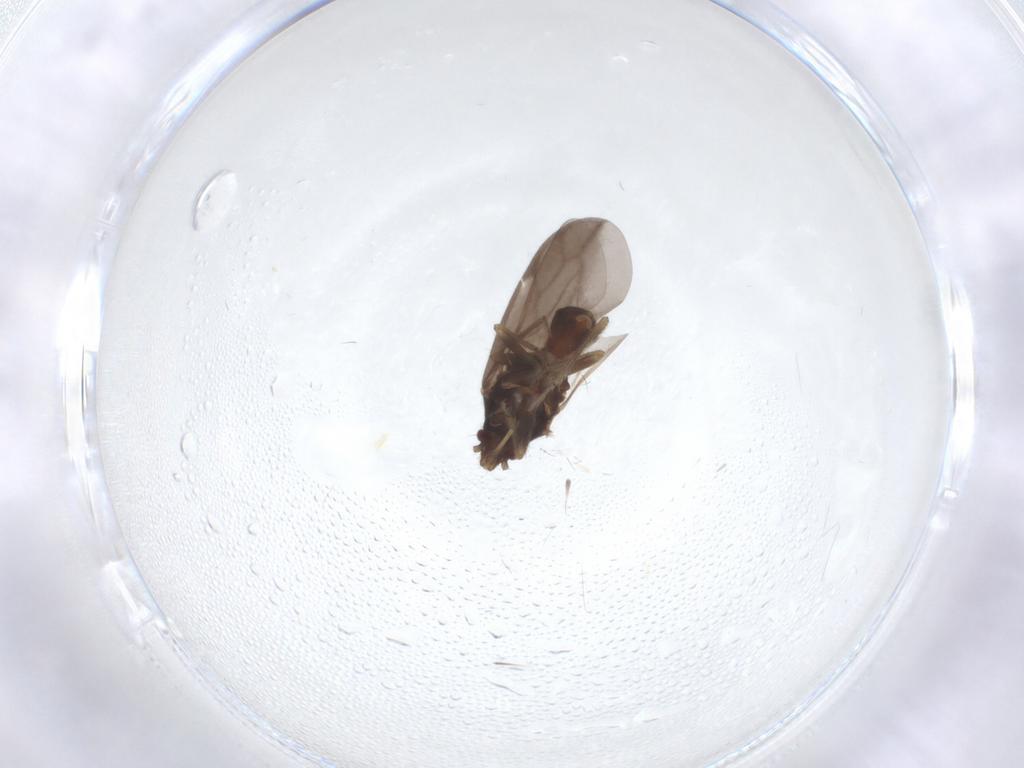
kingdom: Animalia
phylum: Arthropoda
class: Insecta
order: Hemiptera
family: Ceratocombidae
